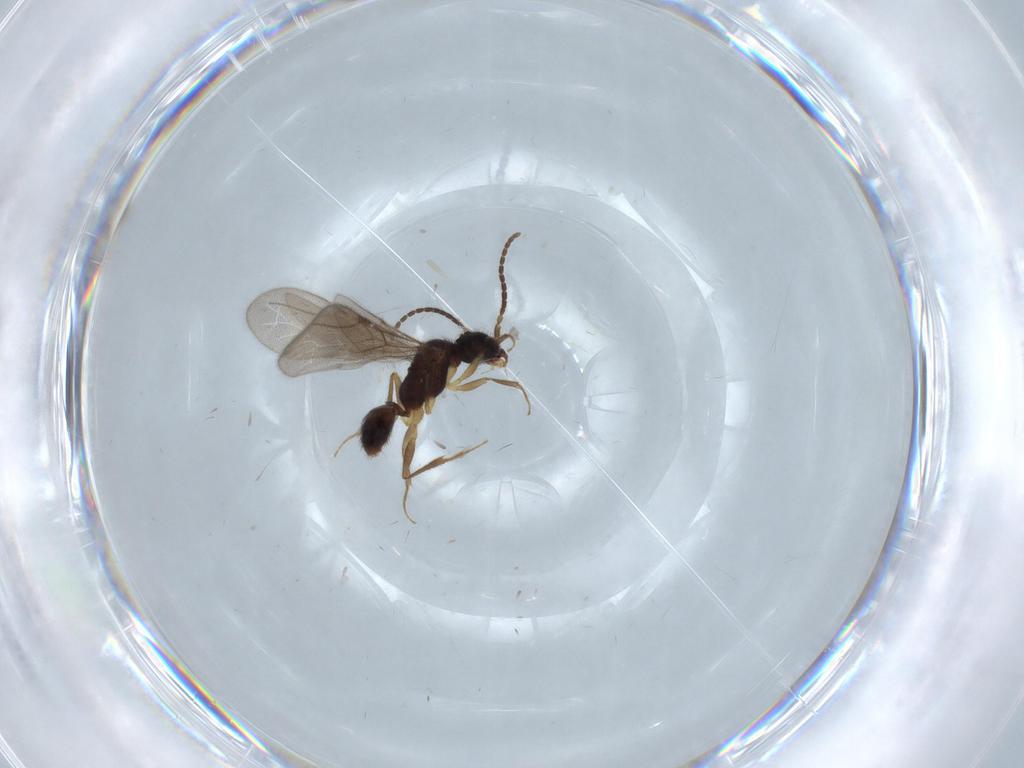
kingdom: Animalia
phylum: Arthropoda
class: Insecta
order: Hymenoptera
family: Bethylidae
